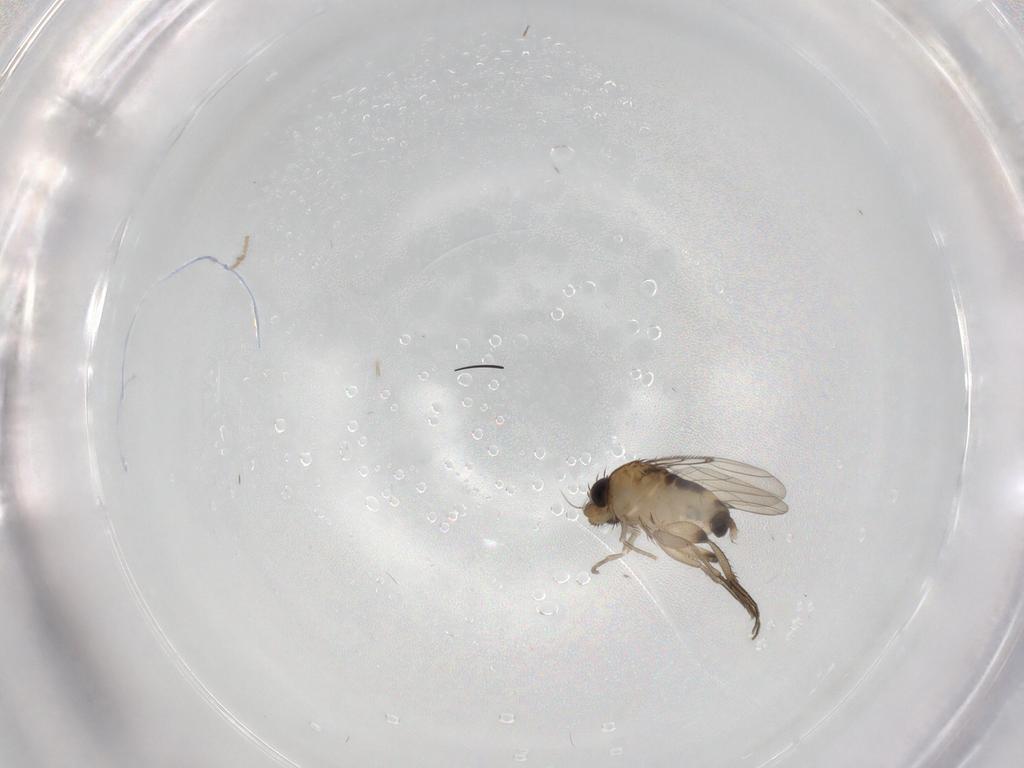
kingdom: Animalia
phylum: Arthropoda
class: Insecta
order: Diptera
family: Phoridae
